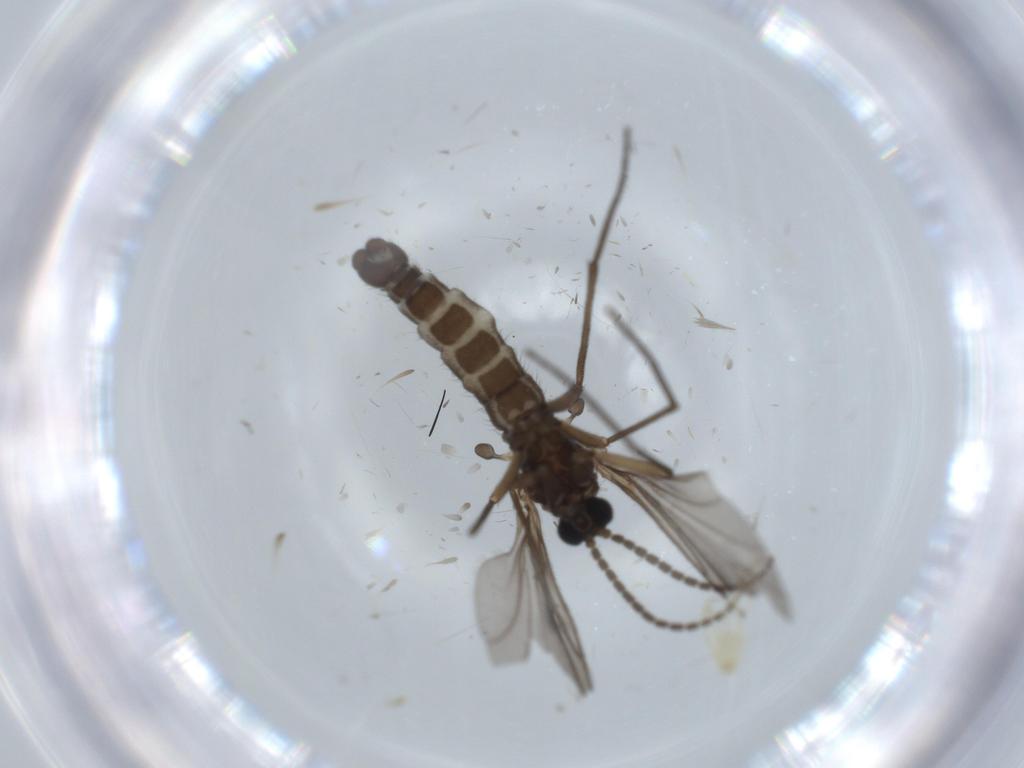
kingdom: Animalia
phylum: Arthropoda
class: Insecta
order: Diptera
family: Sciaridae
